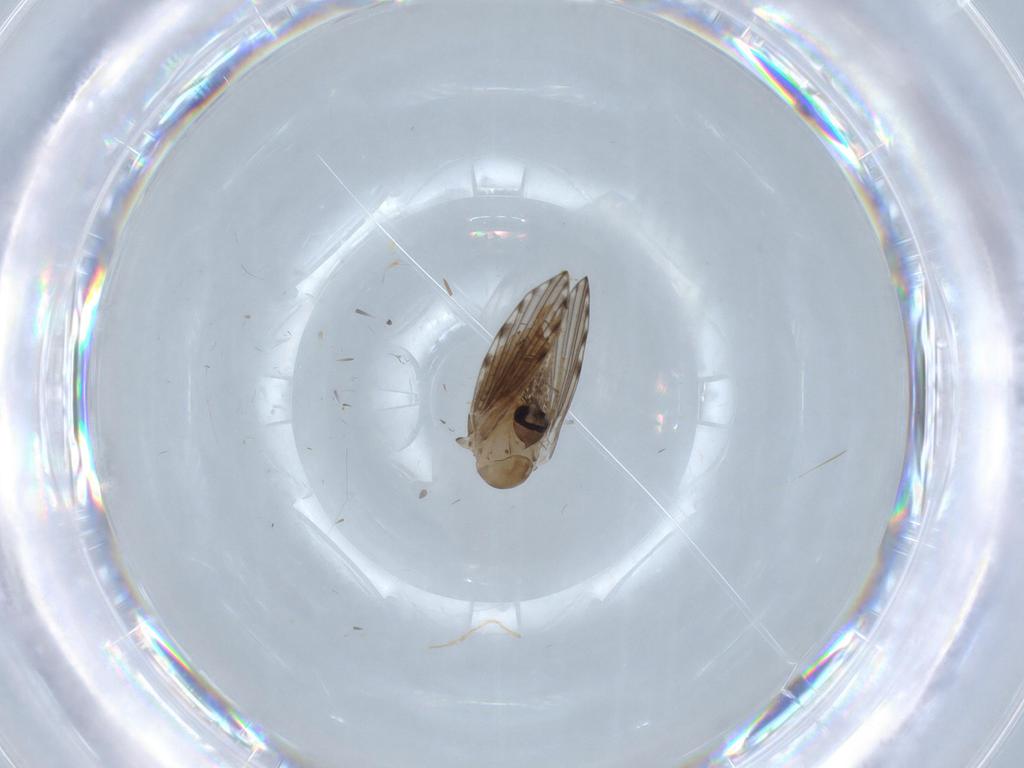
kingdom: Animalia
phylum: Arthropoda
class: Insecta
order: Diptera
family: Psychodidae
